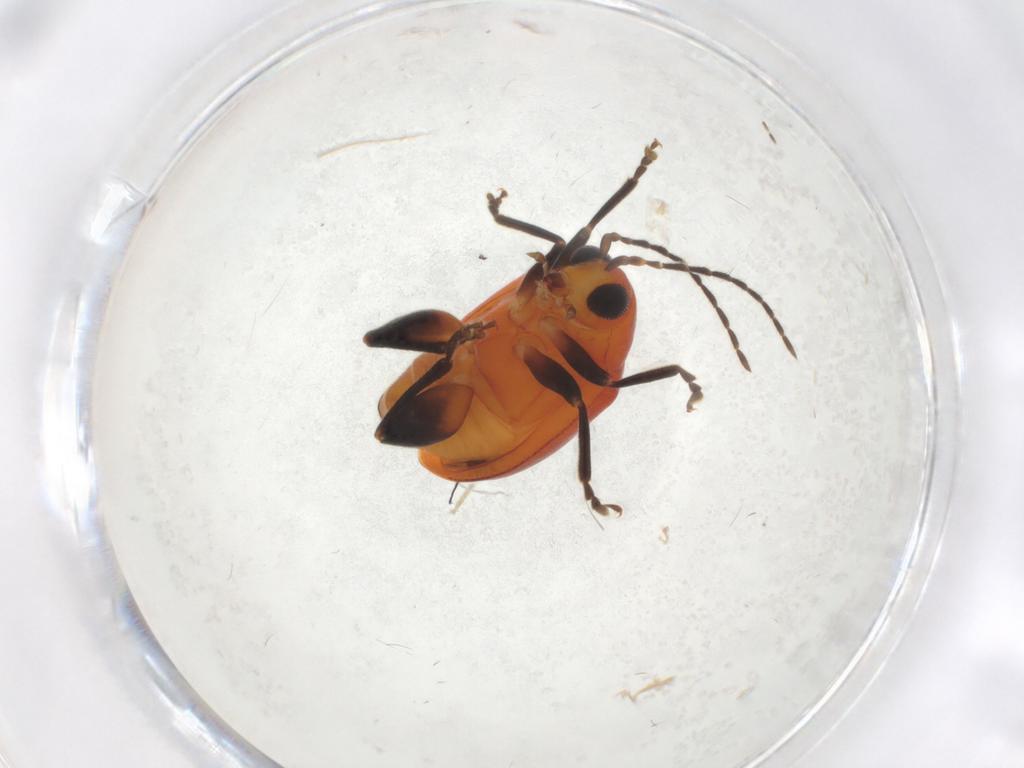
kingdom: Animalia
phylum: Arthropoda
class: Insecta
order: Coleoptera
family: Chrysomelidae
